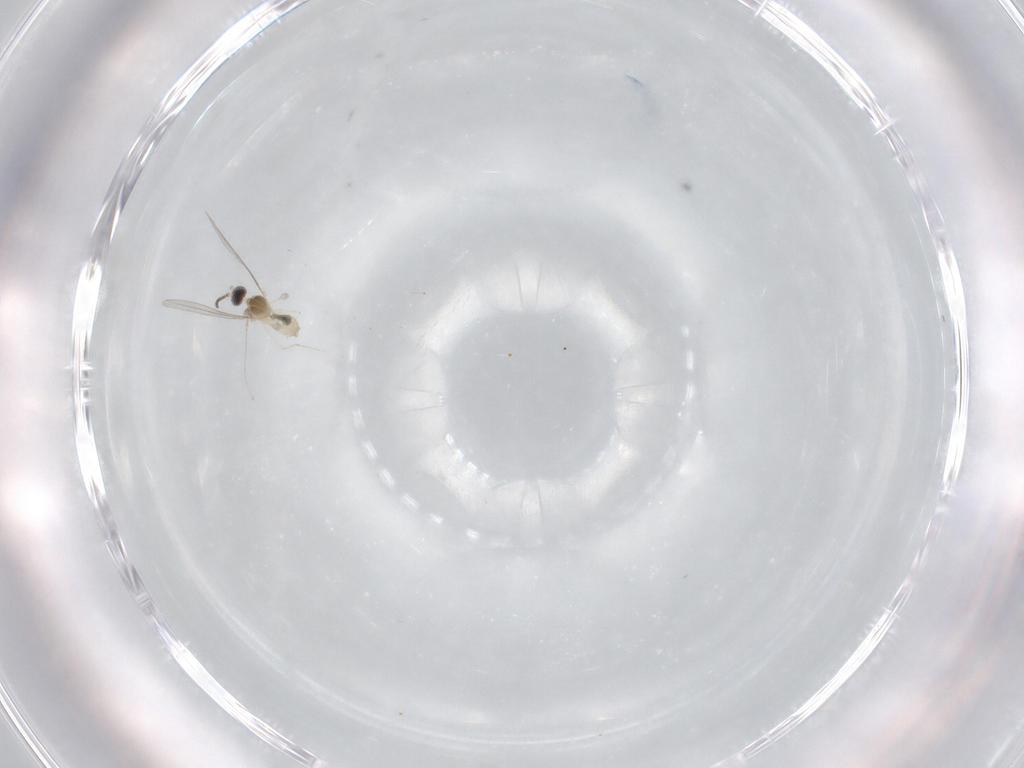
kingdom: Animalia
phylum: Arthropoda
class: Insecta
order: Diptera
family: Cecidomyiidae
